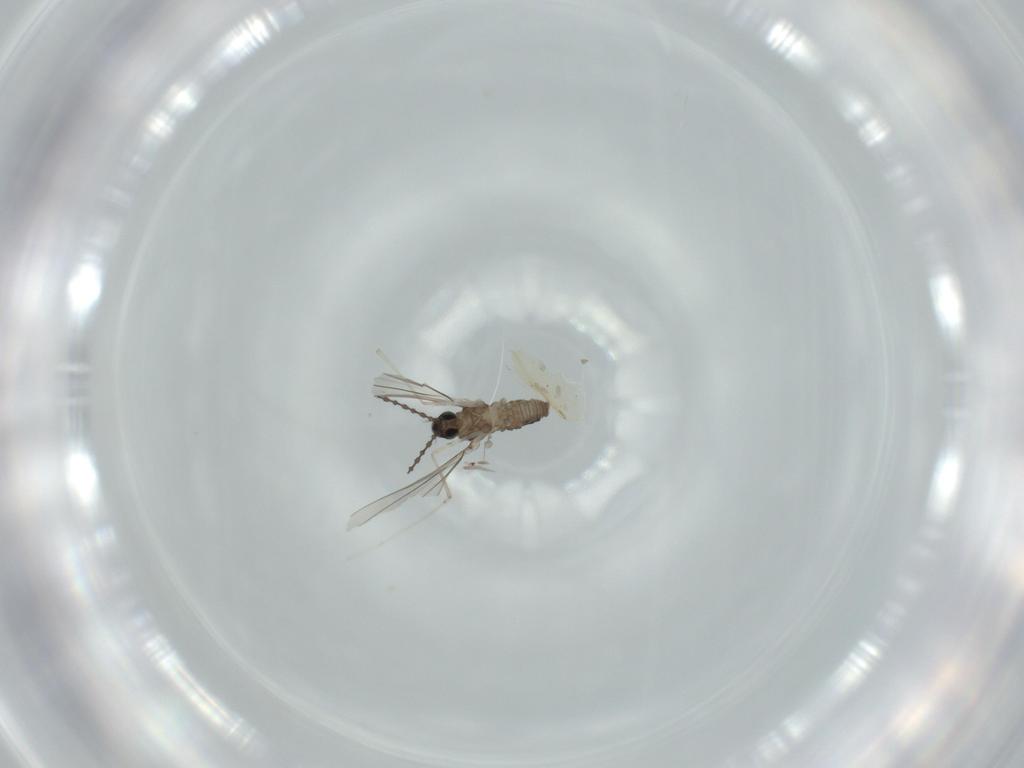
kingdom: Animalia
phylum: Arthropoda
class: Insecta
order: Diptera
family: Cecidomyiidae
